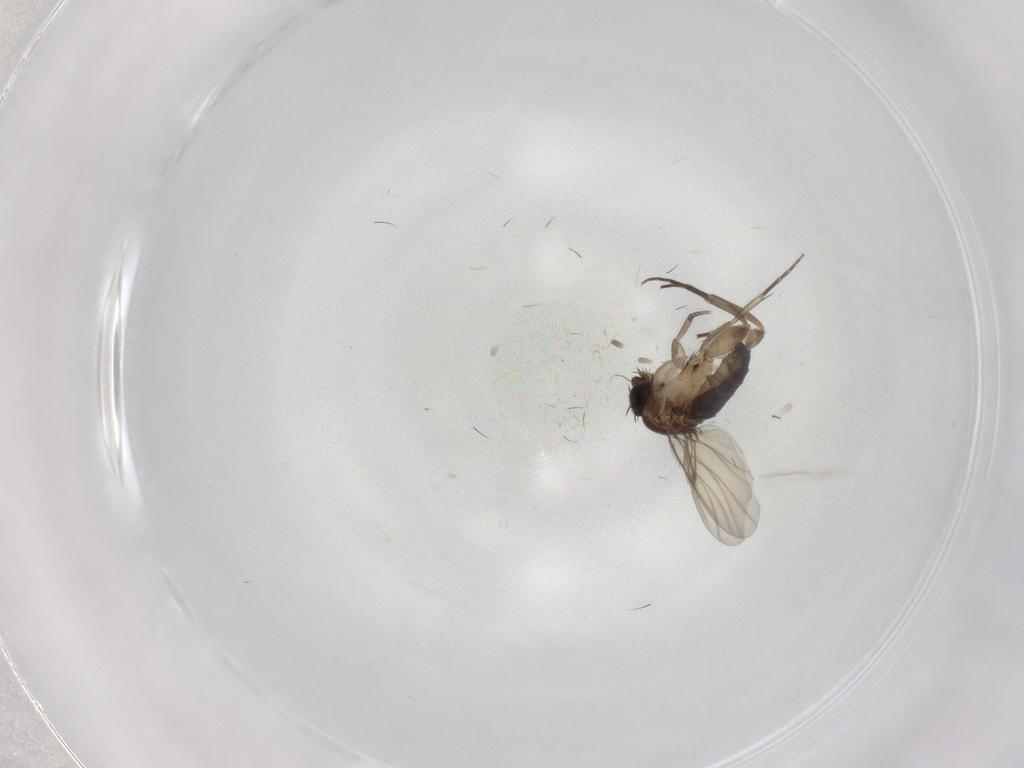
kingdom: Animalia
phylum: Arthropoda
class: Insecta
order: Diptera
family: Phoridae
